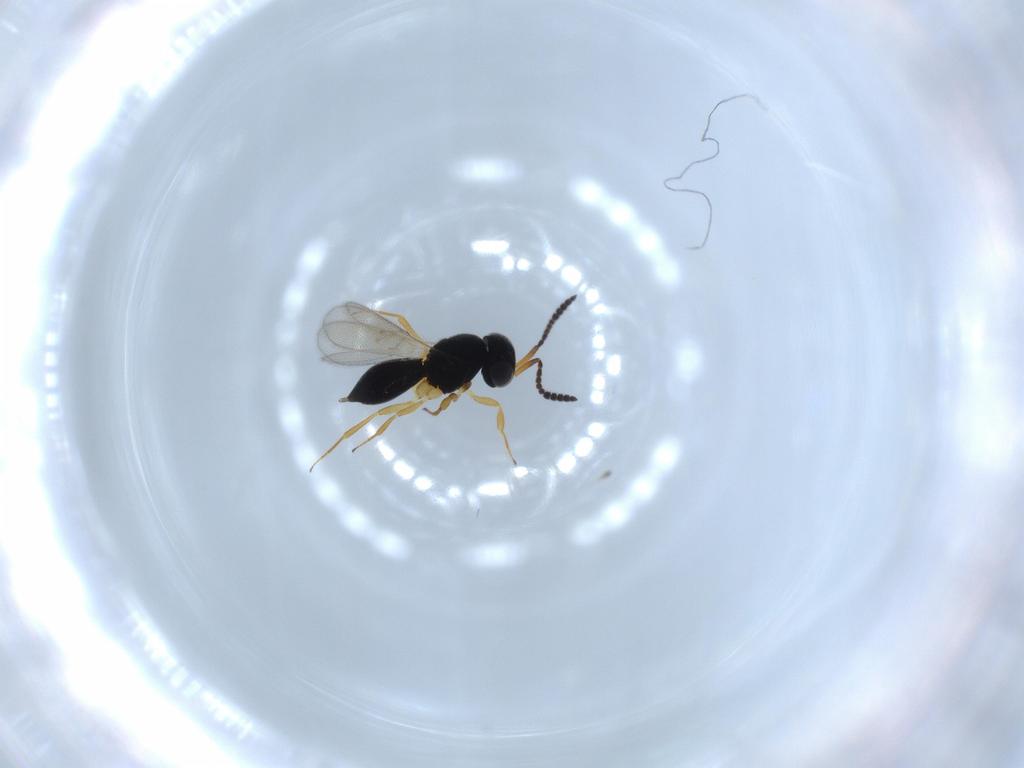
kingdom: Animalia
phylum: Arthropoda
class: Insecta
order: Hymenoptera
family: Scelionidae
